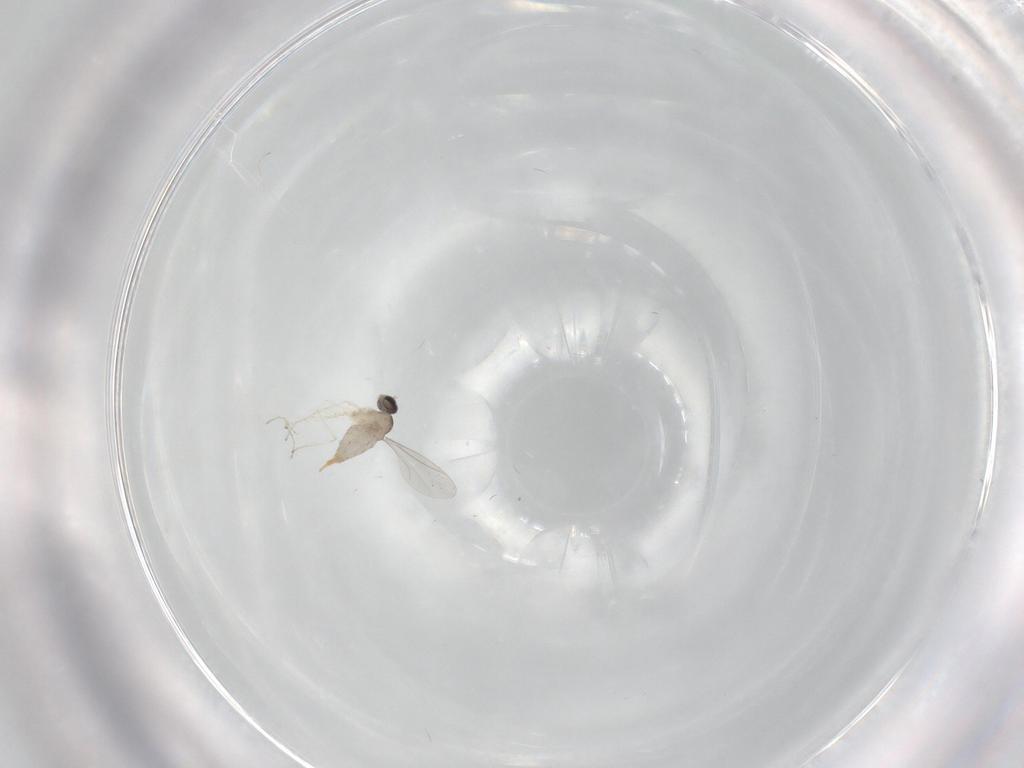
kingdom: Animalia
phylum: Arthropoda
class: Insecta
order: Diptera
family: Cecidomyiidae
